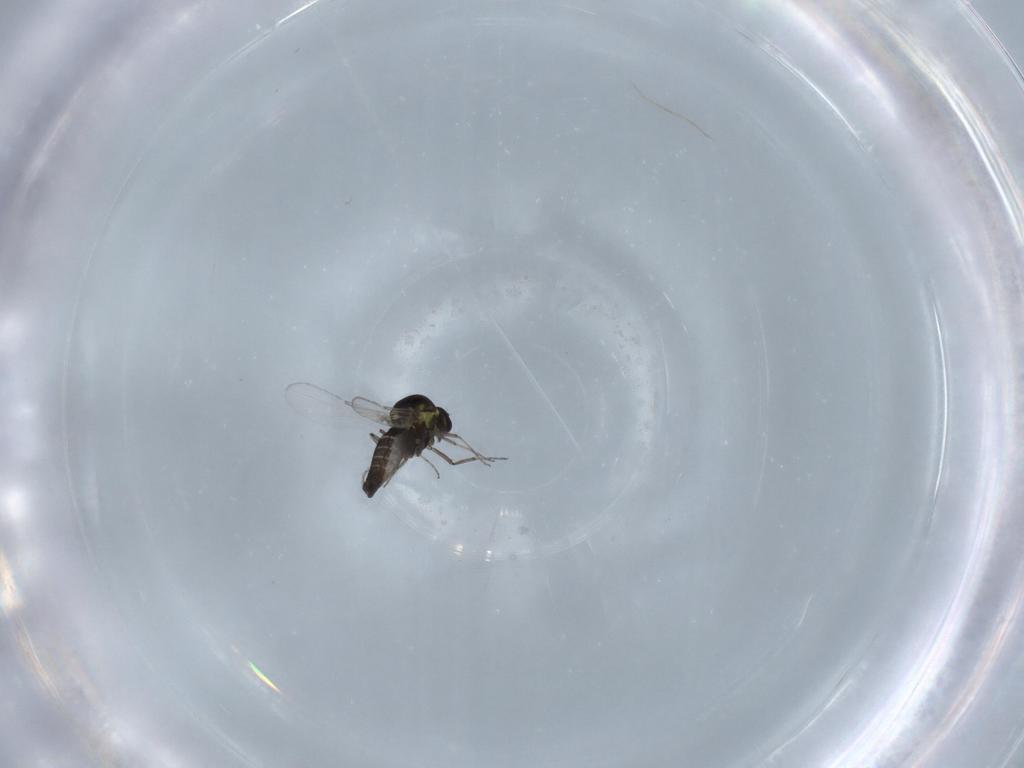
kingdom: Animalia
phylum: Arthropoda
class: Insecta
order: Diptera
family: Ceratopogonidae
